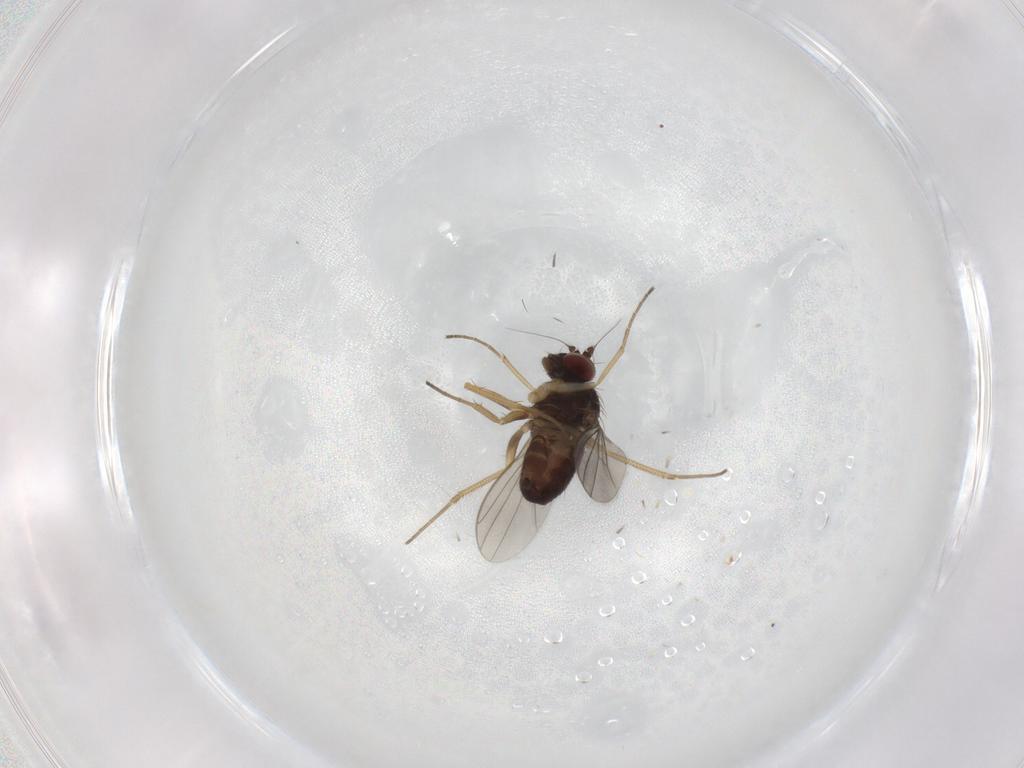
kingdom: Animalia
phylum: Arthropoda
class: Insecta
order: Diptera
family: Dolichopodidae
